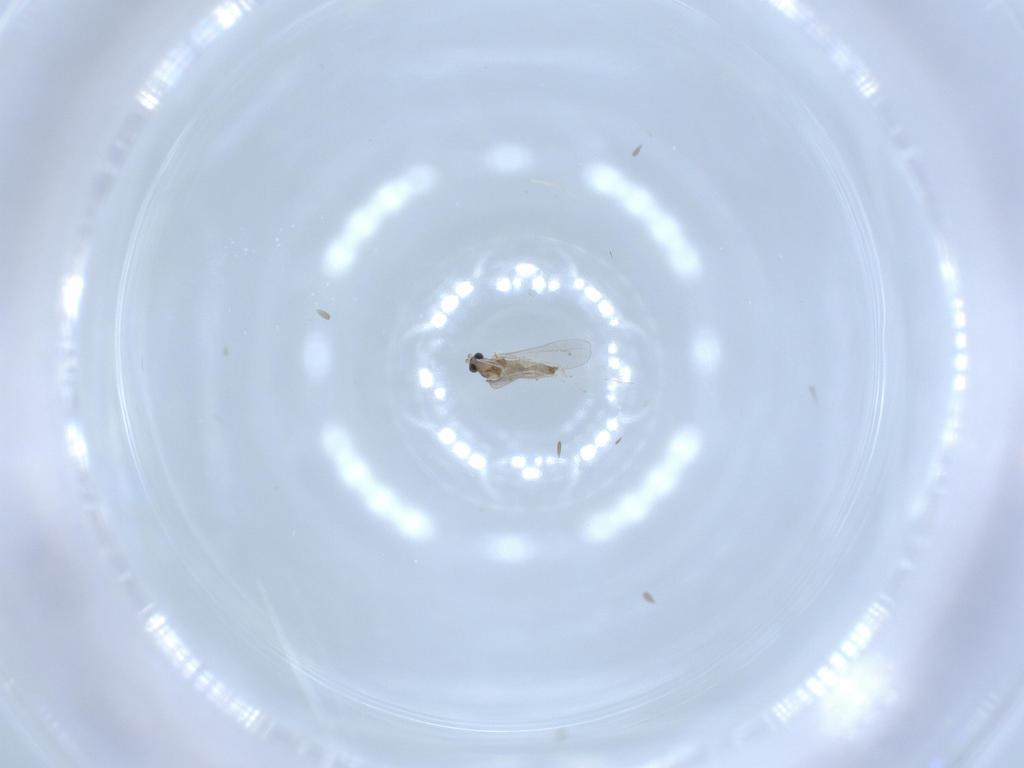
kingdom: Animalia
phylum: Arthropoda
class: Insecta
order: Diptera
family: Cecidomyiidae
